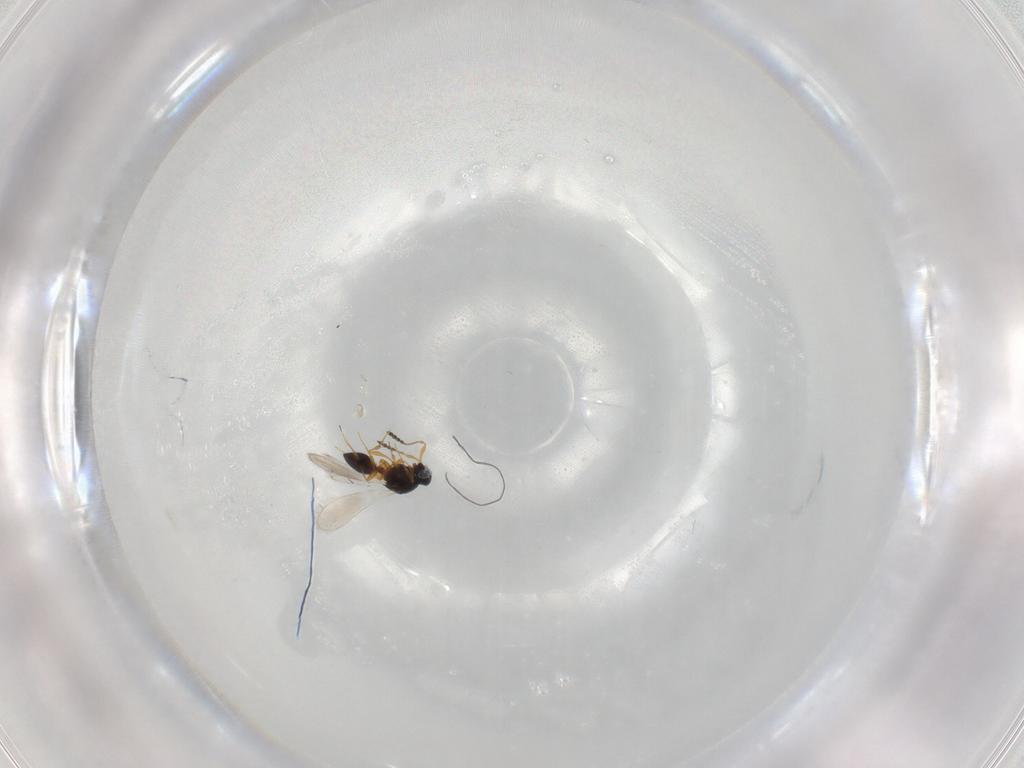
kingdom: Animalia
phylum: Arthropoda
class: Insecta
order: Hymenoptera
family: Platygastridae
